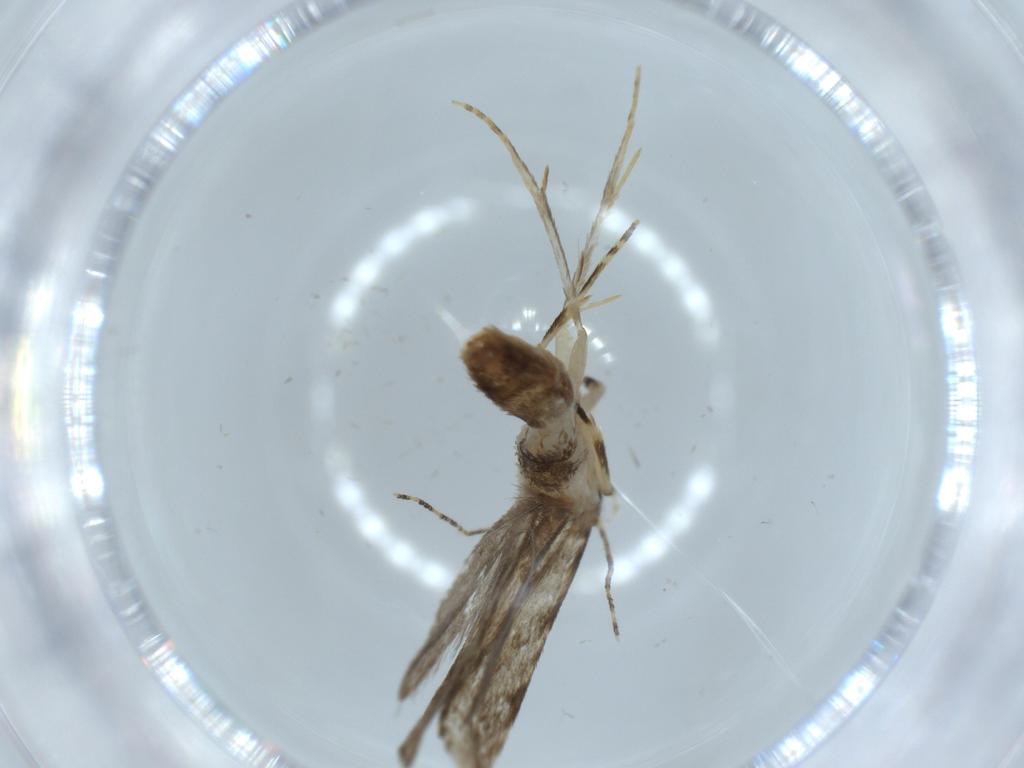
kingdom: Animalia
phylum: Arthropoda
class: Insecta
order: Lepidoptera
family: Tineidae
